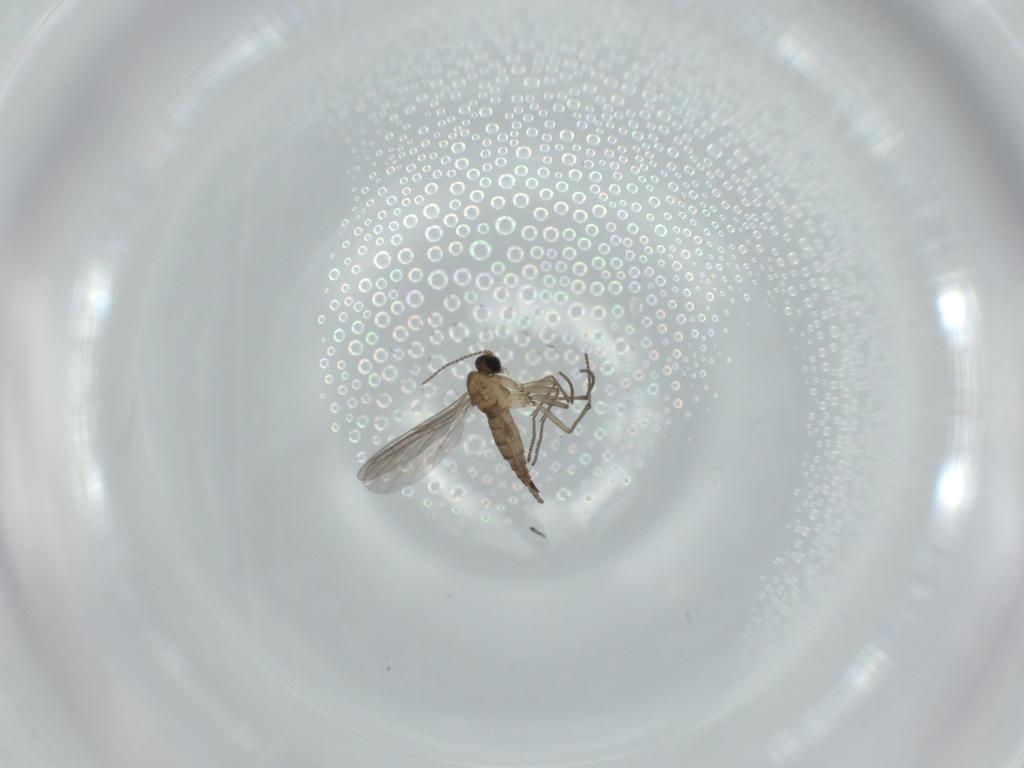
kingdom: Animalia
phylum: Arthropoda
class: Insecta
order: Diptera
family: Sciaridae
